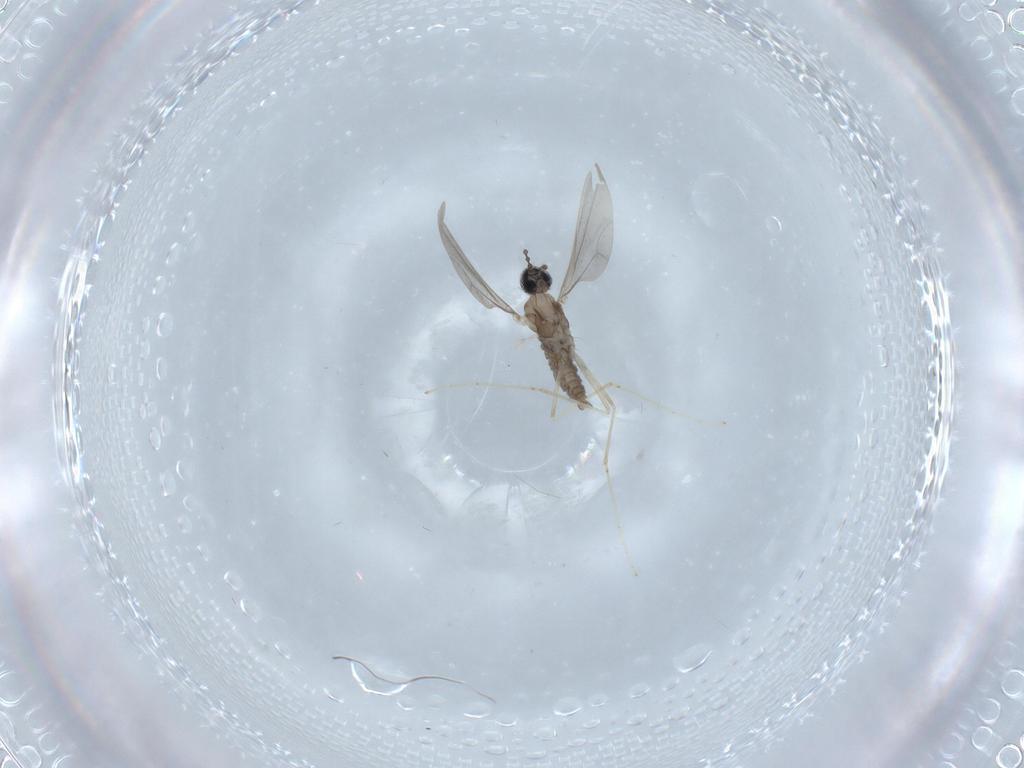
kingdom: Animalia
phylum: Arthropoda
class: Insecta
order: Diptera
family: Cecidomyiidae
